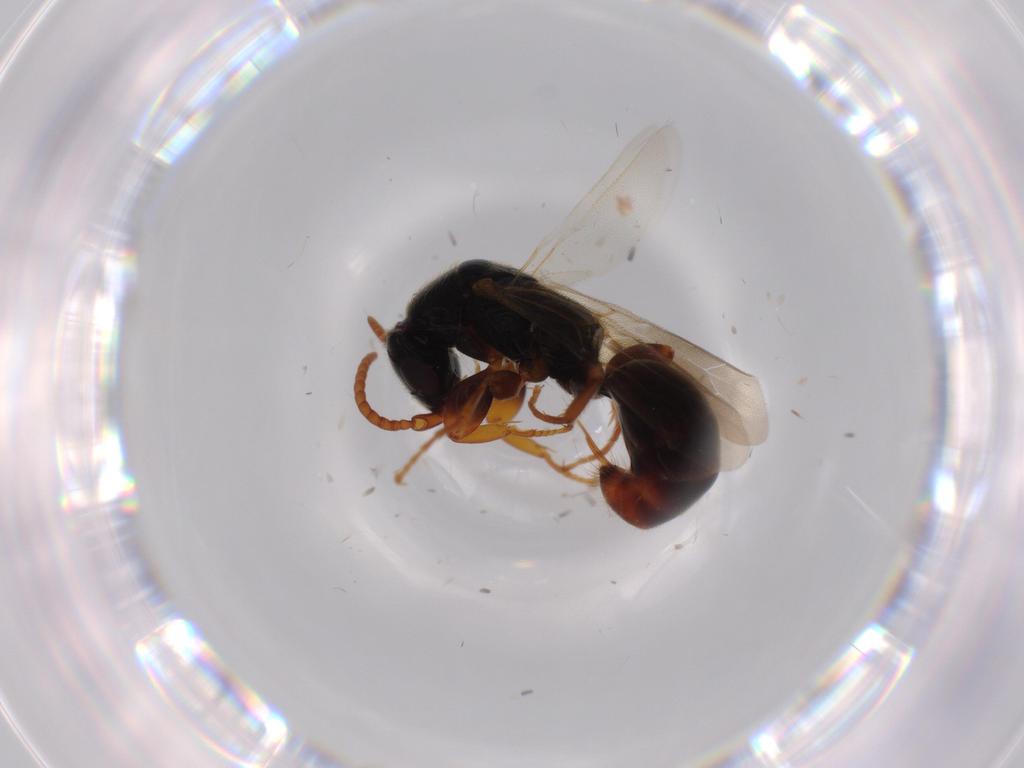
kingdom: Animalia
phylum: Arthropoda
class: Insecta
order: Hymenoptera
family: Bethylidae
